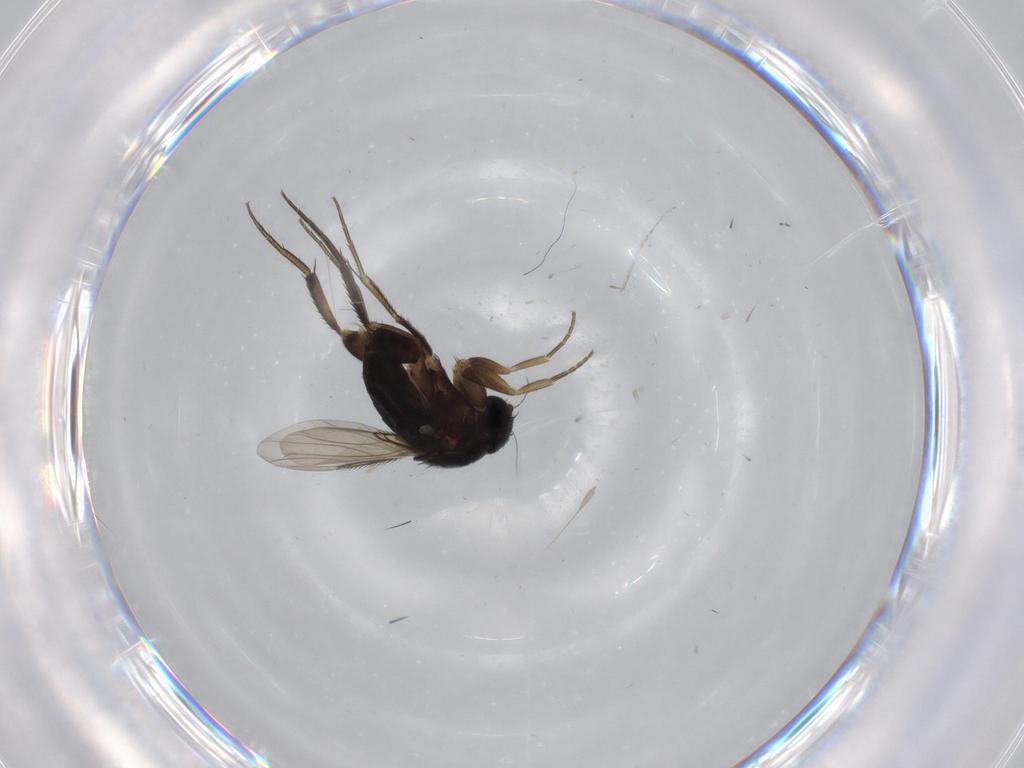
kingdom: Animalia
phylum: Arthropoda
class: Insecta
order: Diptera
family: Phoridae
